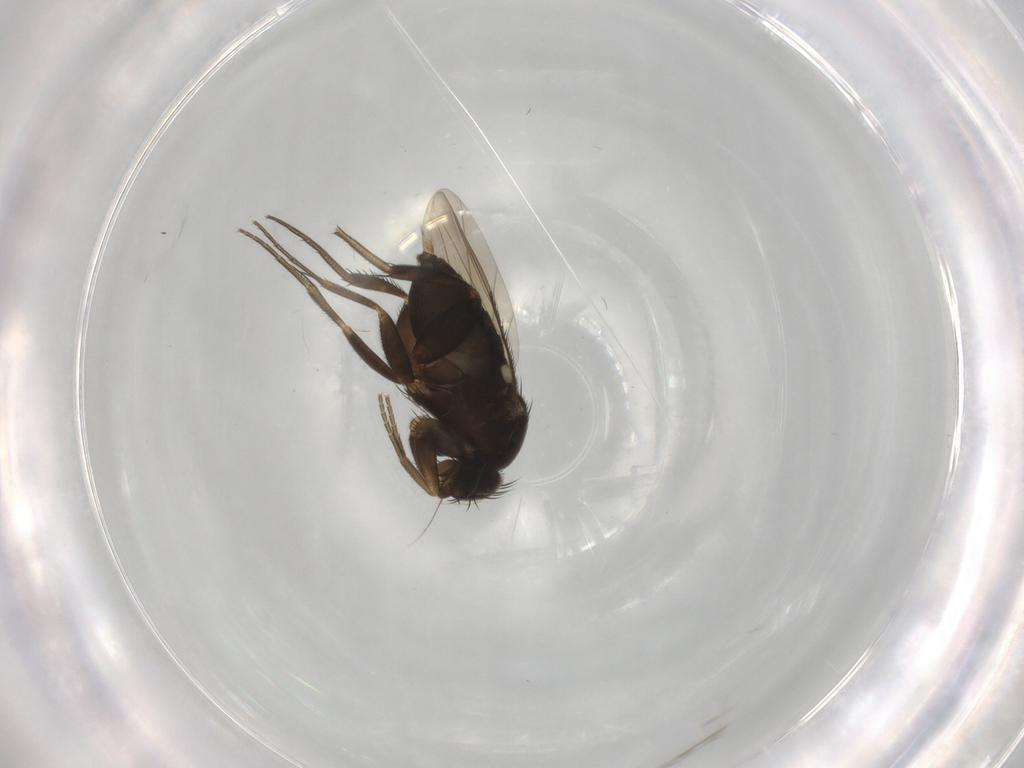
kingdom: Animalia
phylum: Arthropoda
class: Insecta
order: Diptera
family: Phoridae
